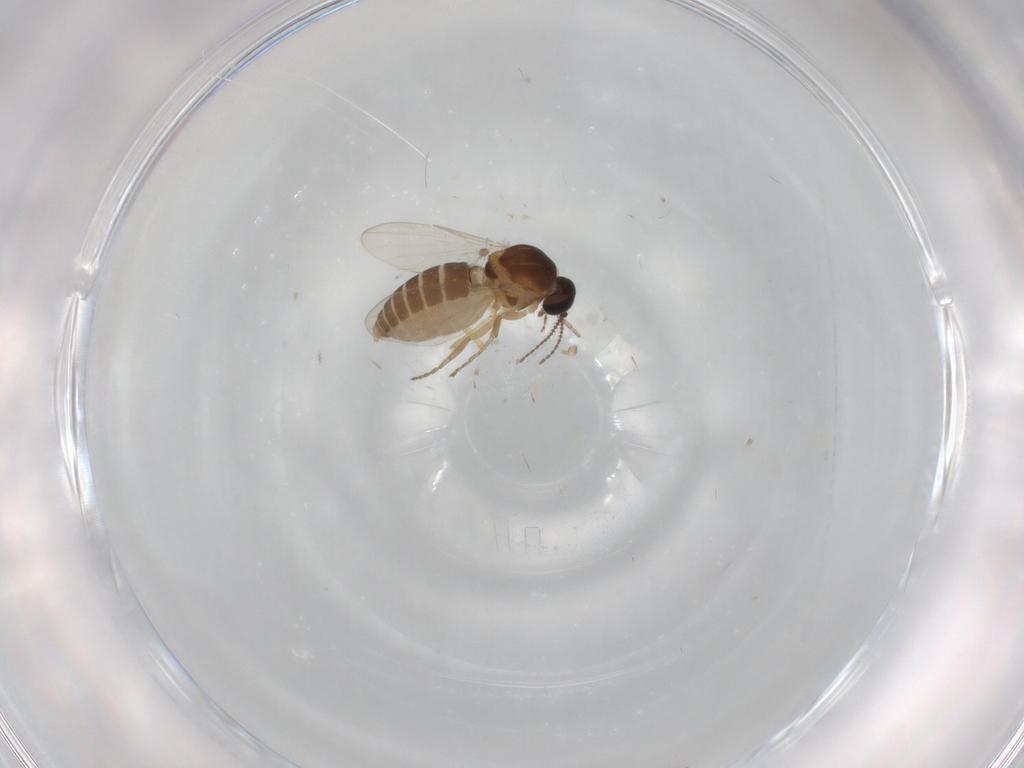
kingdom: Animalia
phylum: Arthropoda
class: Insecta
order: Diptera
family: Ceratopogonidae
